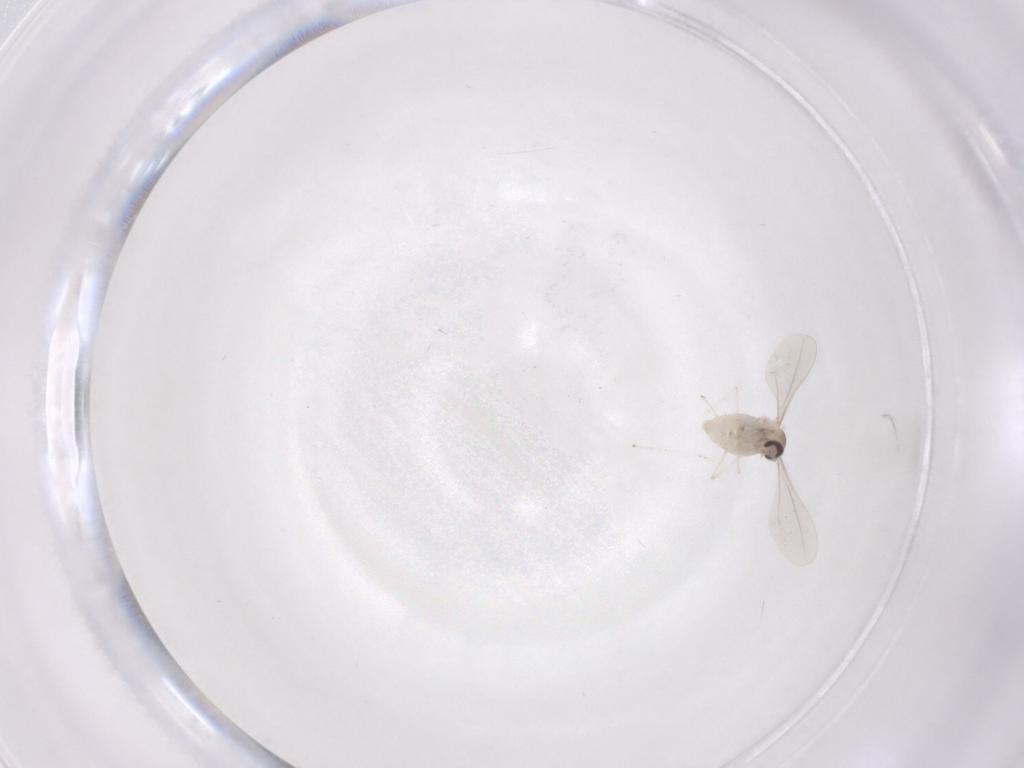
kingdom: Animalia
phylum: Arthropoda
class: Insecta
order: Diptera
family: Cecidomyiidae
